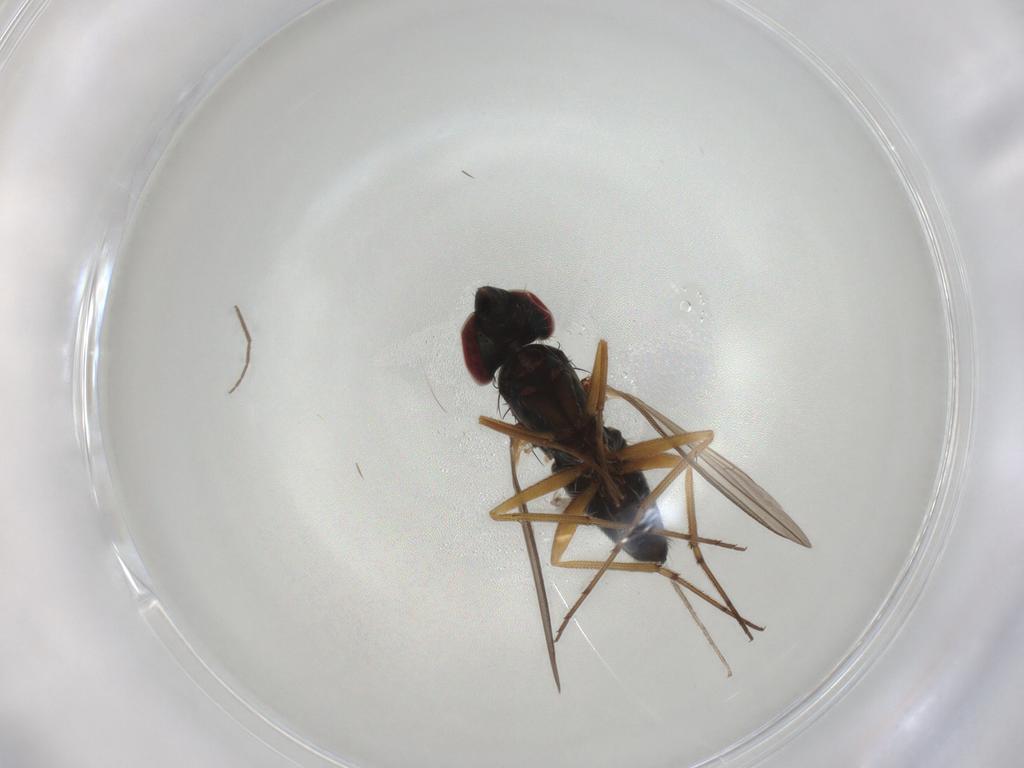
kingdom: Animalia
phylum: Arthropoda
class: Insecta
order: Diptera
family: Dolichopodidae
